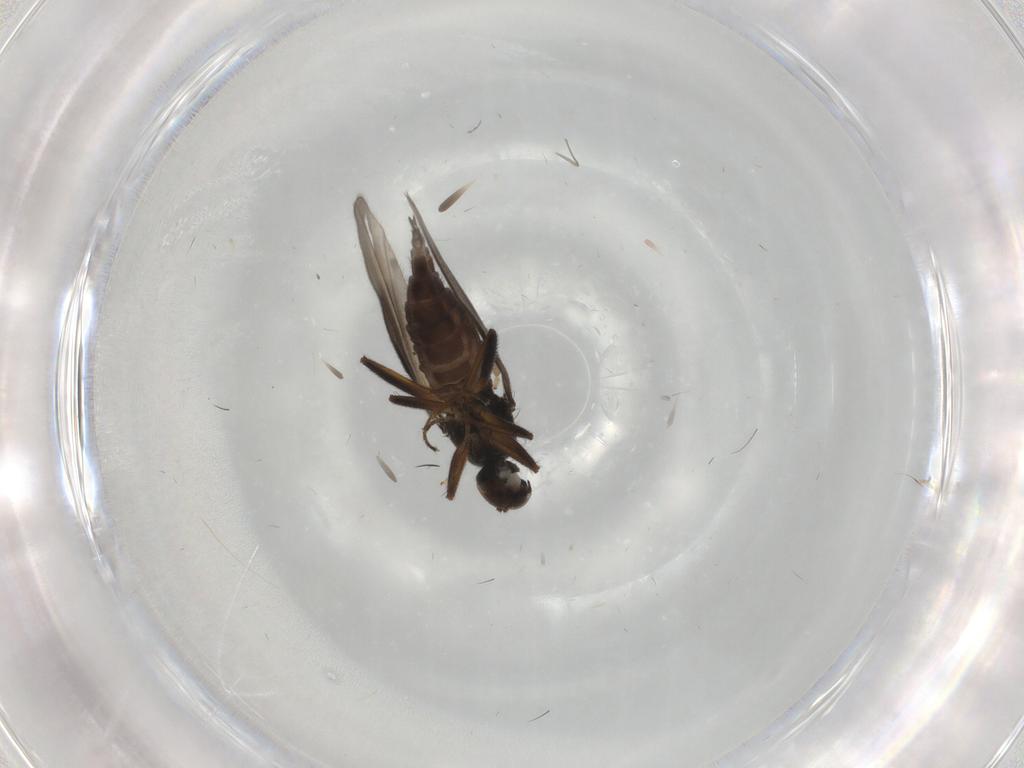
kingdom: Animalia
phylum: Arthropoda
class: Insecta
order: Diptera
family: Hybotidae
